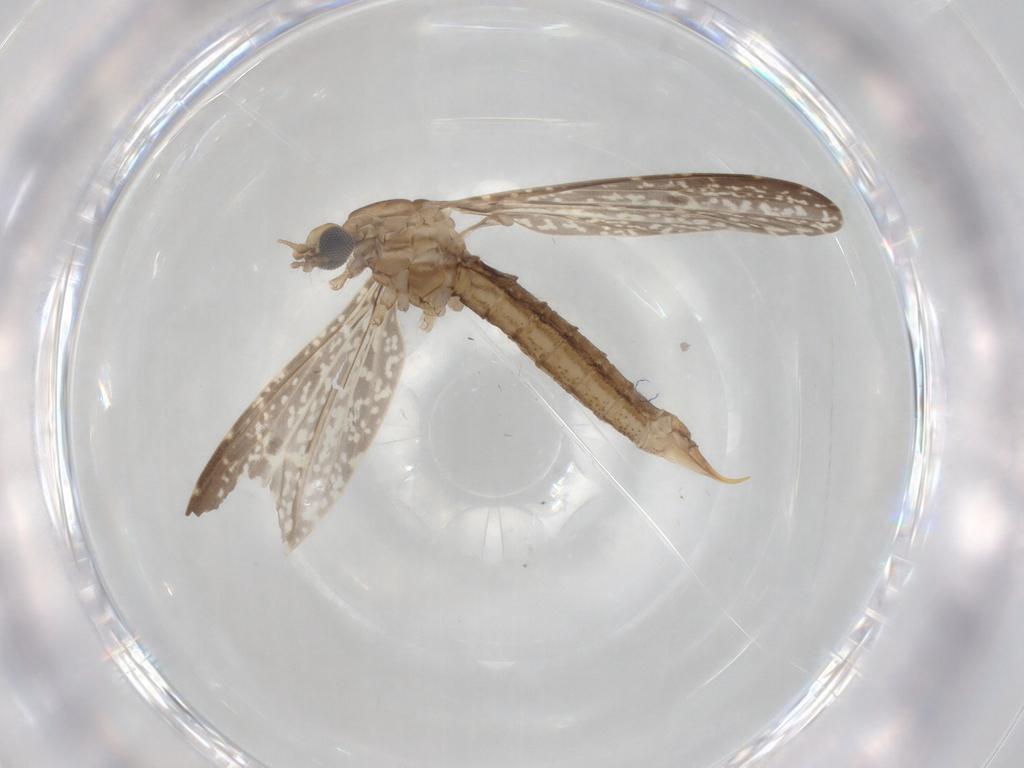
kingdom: Animalia
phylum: Arthropoda
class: Insecta
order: Diptera
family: Limoniidae
